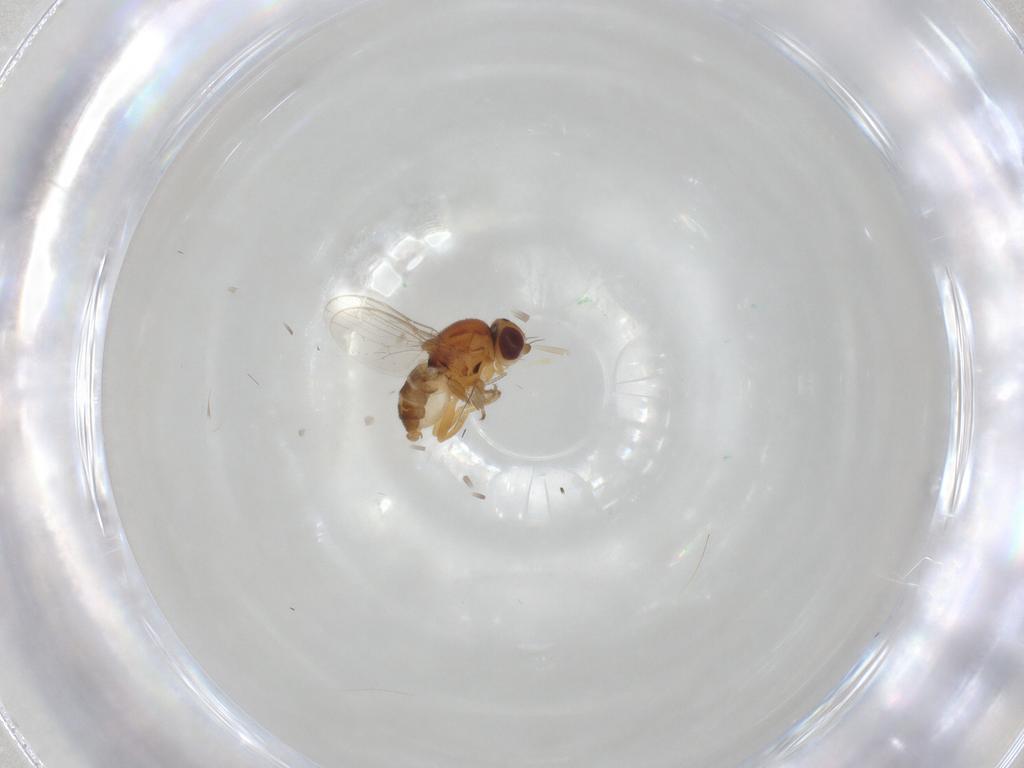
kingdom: Animalia
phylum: Arthropoda
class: Insecta
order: Diptera
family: Chloropidae
